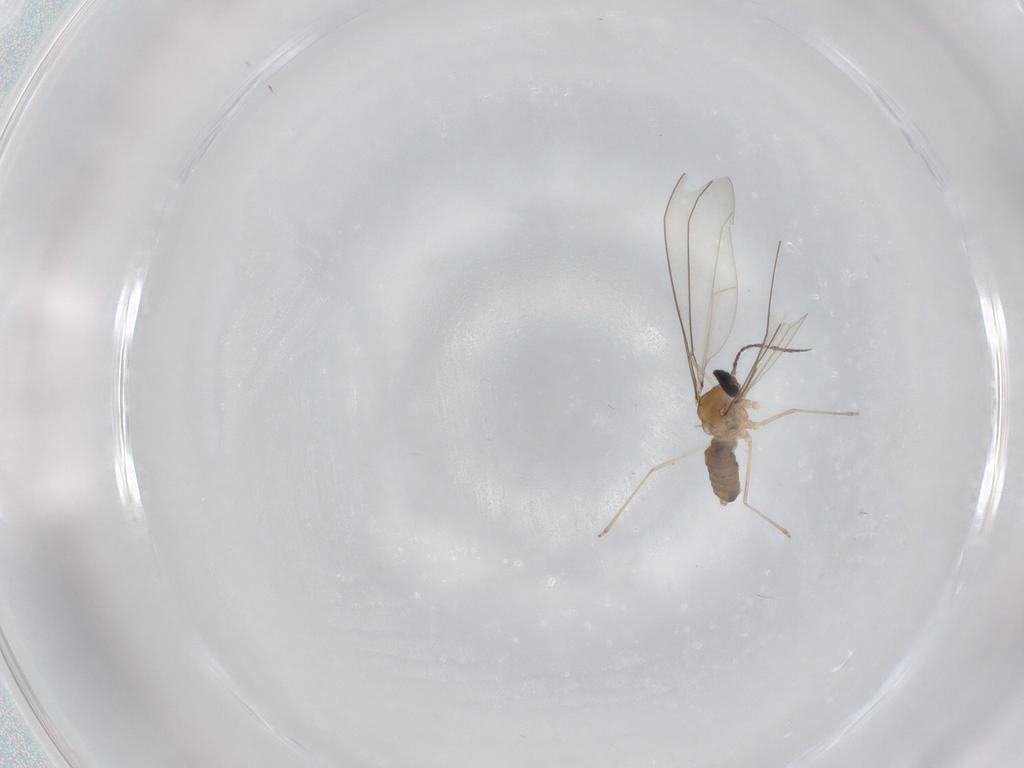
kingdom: Animalia
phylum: Arthropoda
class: Insecta
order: Diptera
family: Cecidomyiidae
